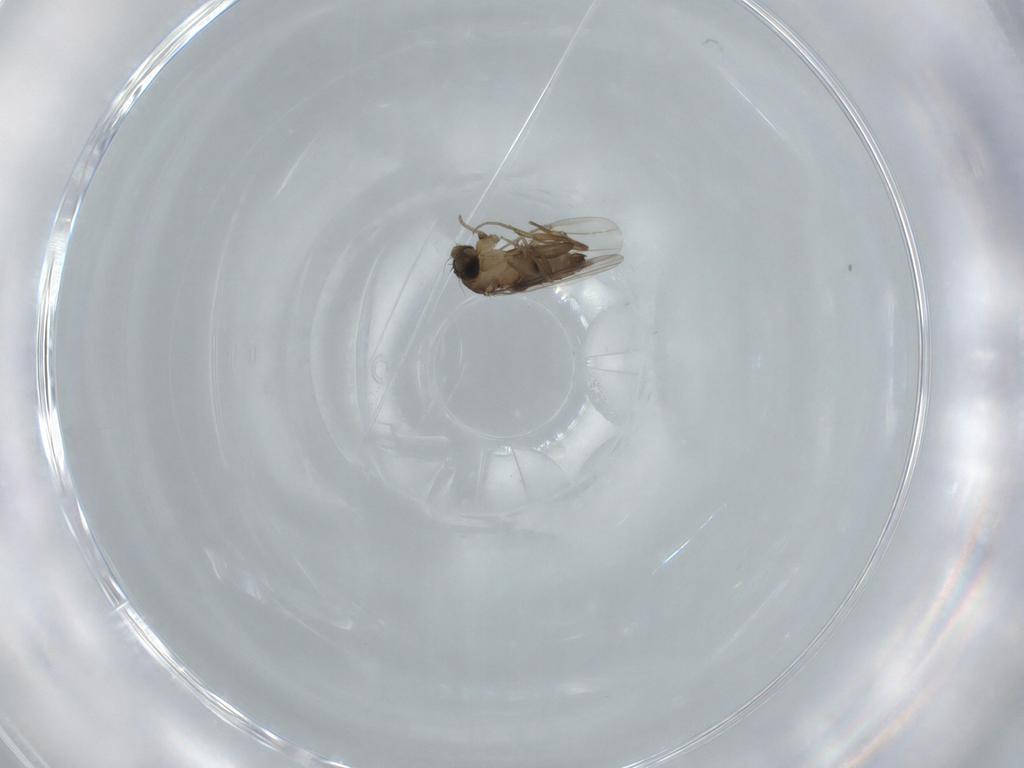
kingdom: Animalia
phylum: Arthropoda
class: Insecta
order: Diptera
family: Phoridae
